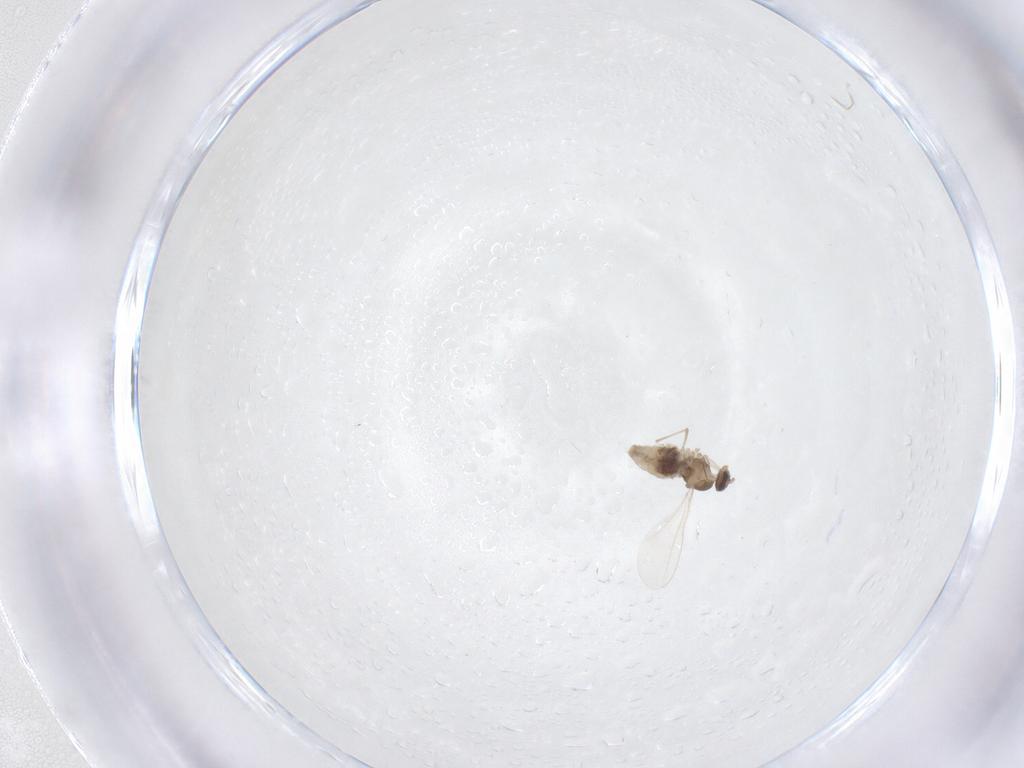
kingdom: Animalia
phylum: Arthropoda
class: Insecta
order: Diptera
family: Cecidomyiidae
